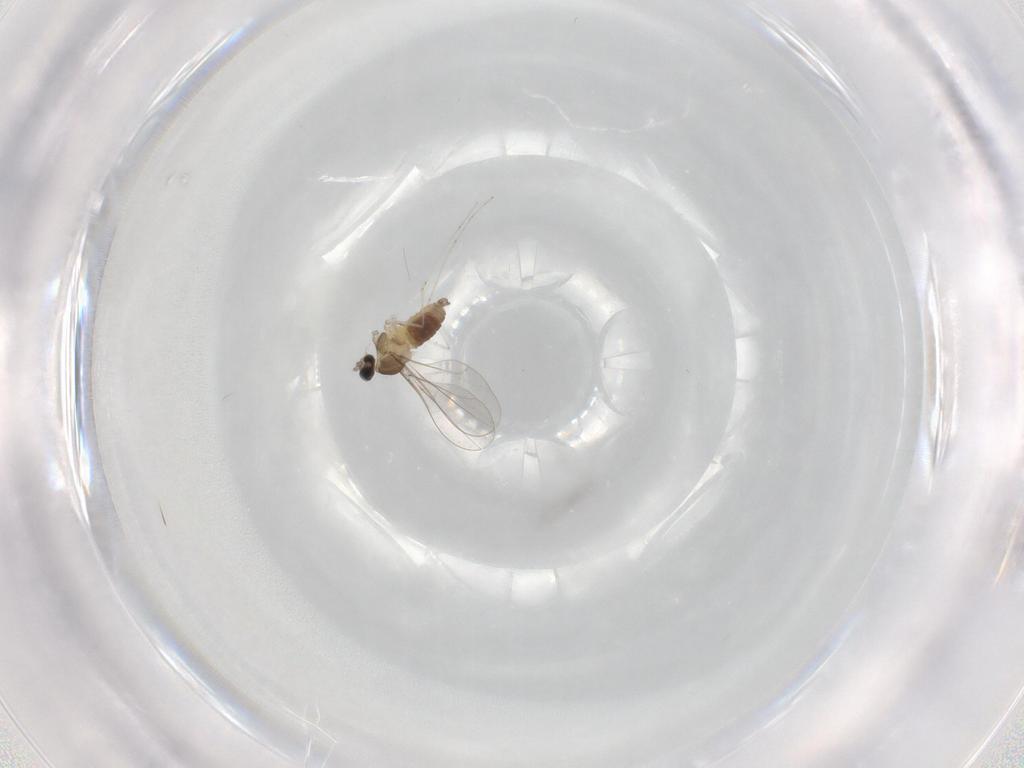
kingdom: Animalia
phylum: Arthropoda
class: Insecta
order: Diptera
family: Cecidomyiidae
